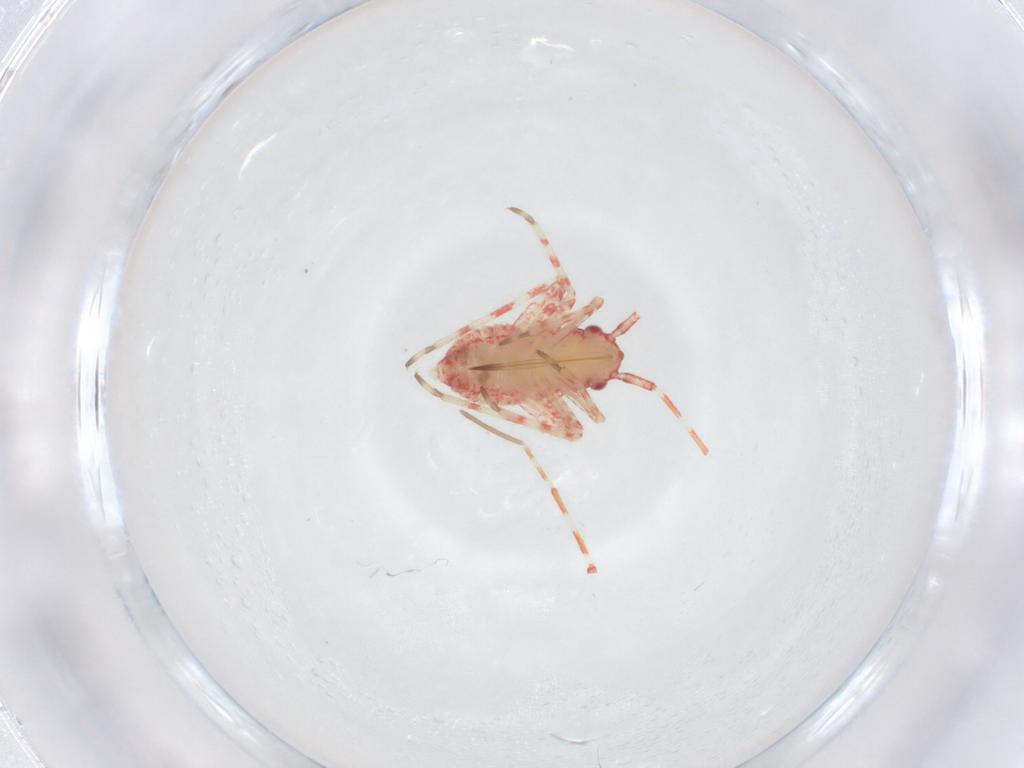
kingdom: Animalia
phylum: Arthropoda
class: Insecta
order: Hemiptera
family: Miridae
